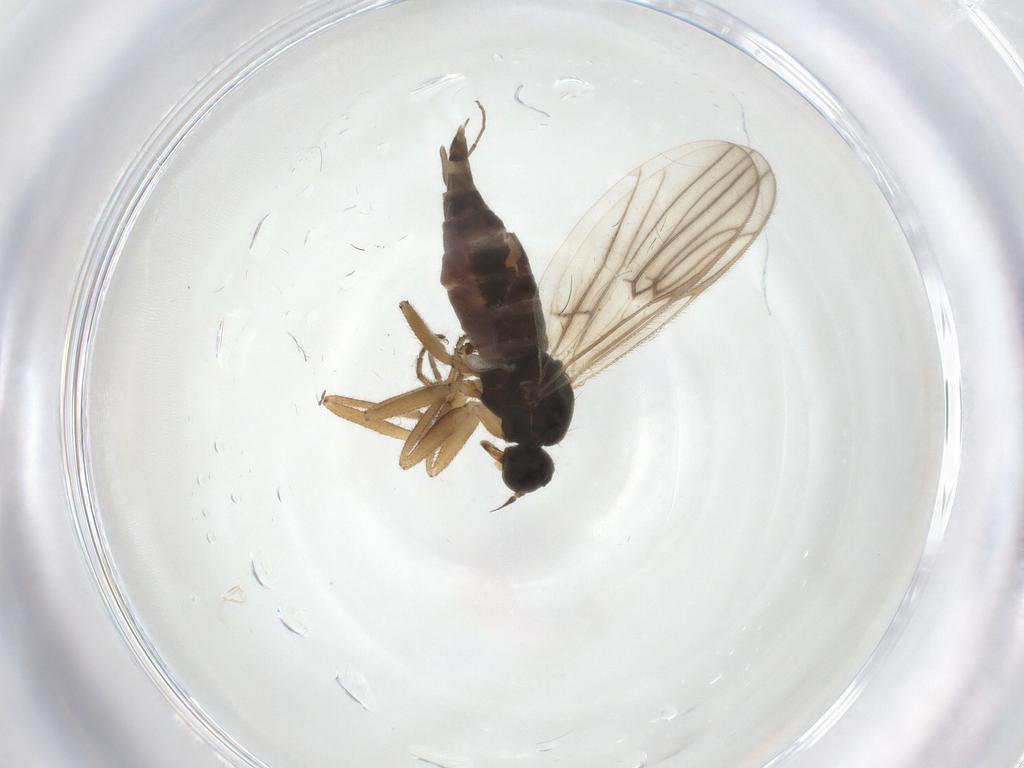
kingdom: Animalia
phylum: Arthropoda
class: Insecta
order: Diptera
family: Hybotidae
